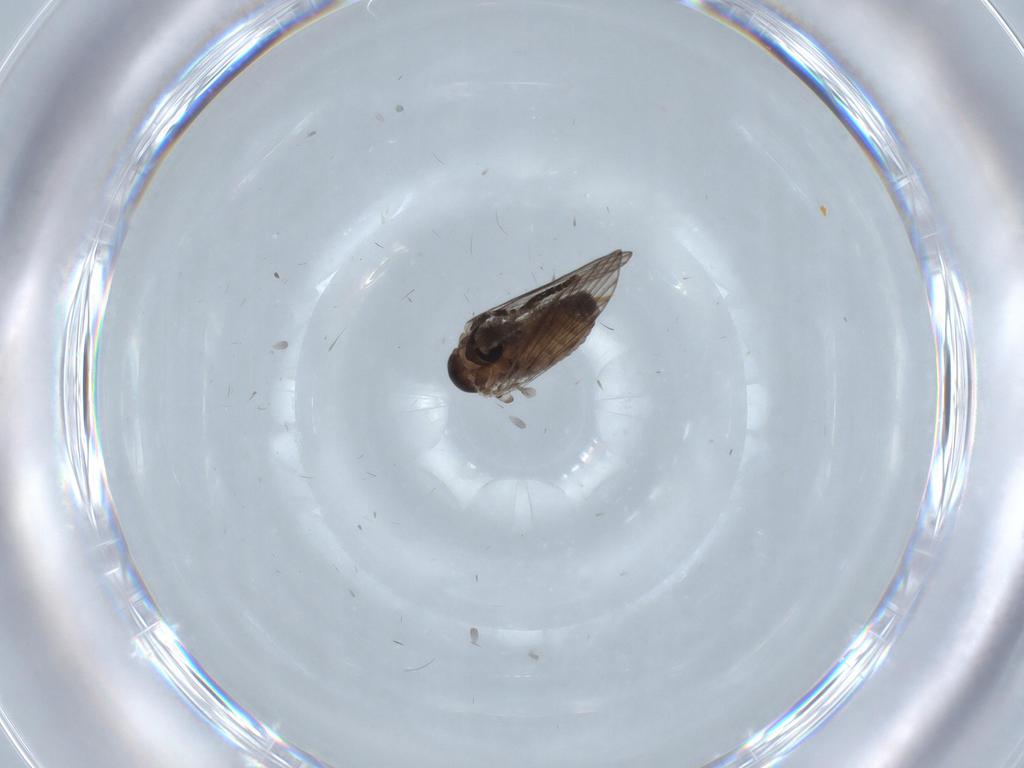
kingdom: Animalia
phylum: Arthropoda
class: Insecta
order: Diptera
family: Psychodidae
